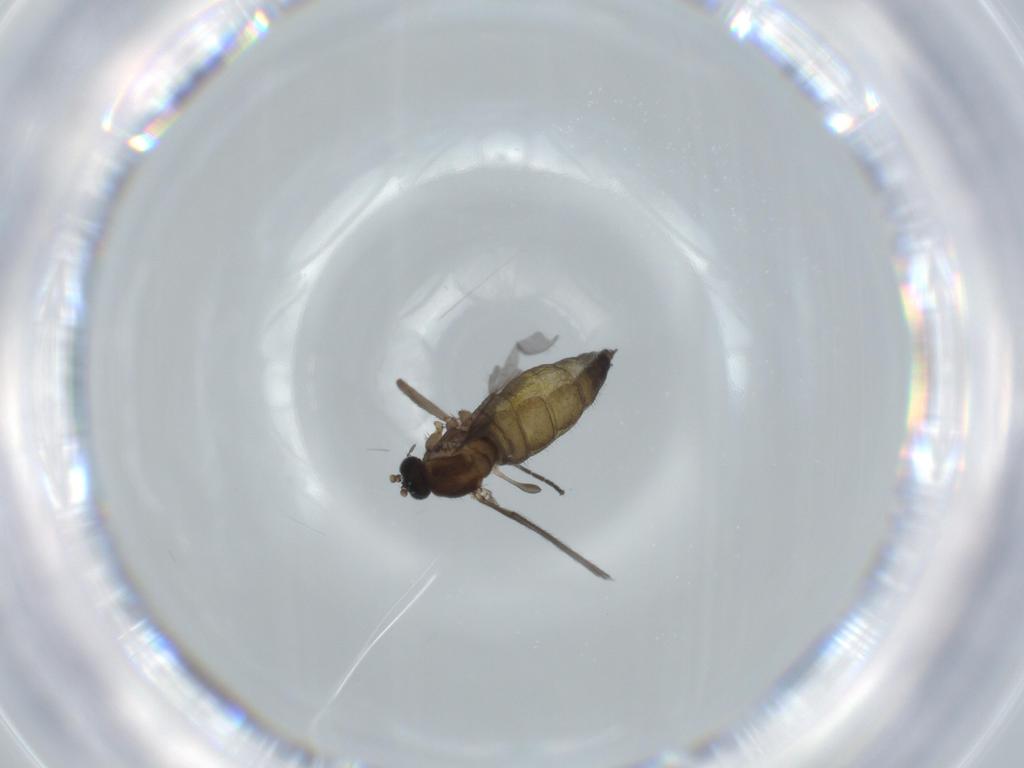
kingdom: Animalia
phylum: Arthropoda
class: Insecta
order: Diptera
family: Sciaridae
